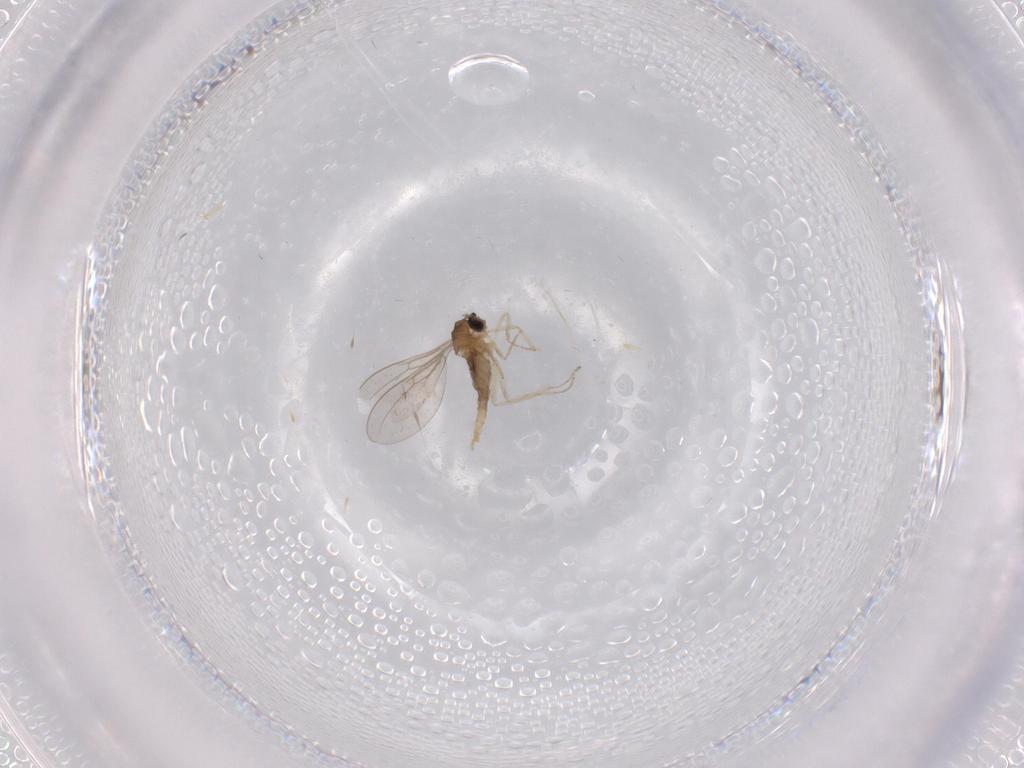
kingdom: Animalia
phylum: Arthropoda
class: Insecta
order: Diptera
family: Cecidomyiidae
